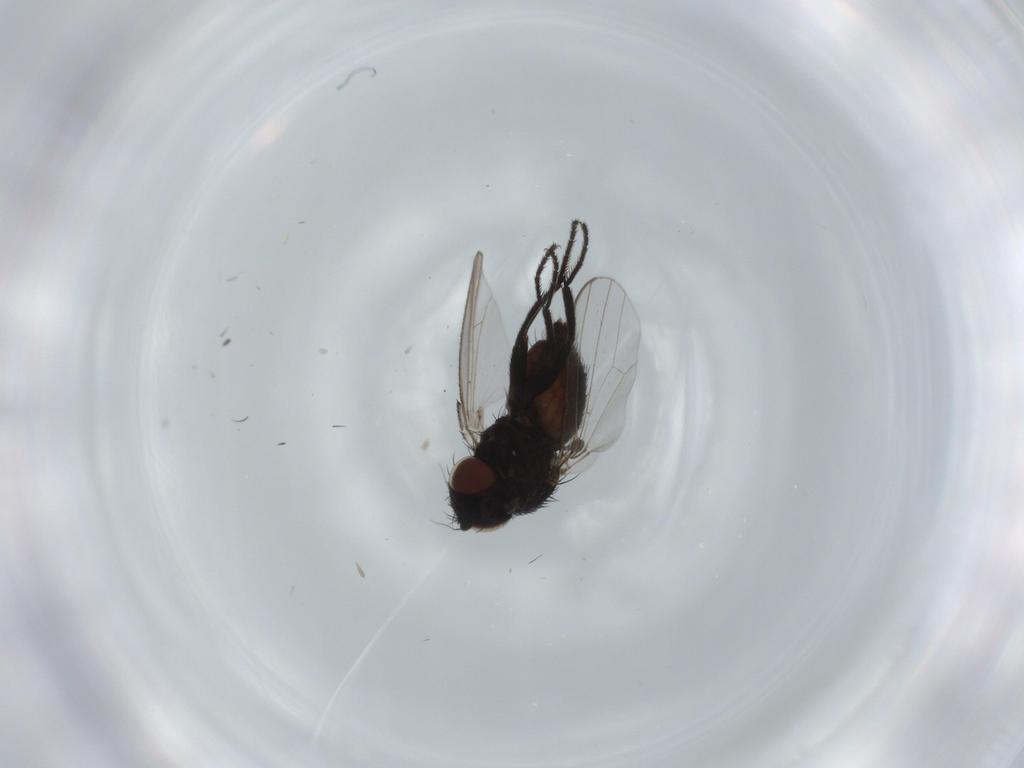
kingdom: Animalia
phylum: Arthropoda
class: Insecta
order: Diptera
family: Milichiidae
